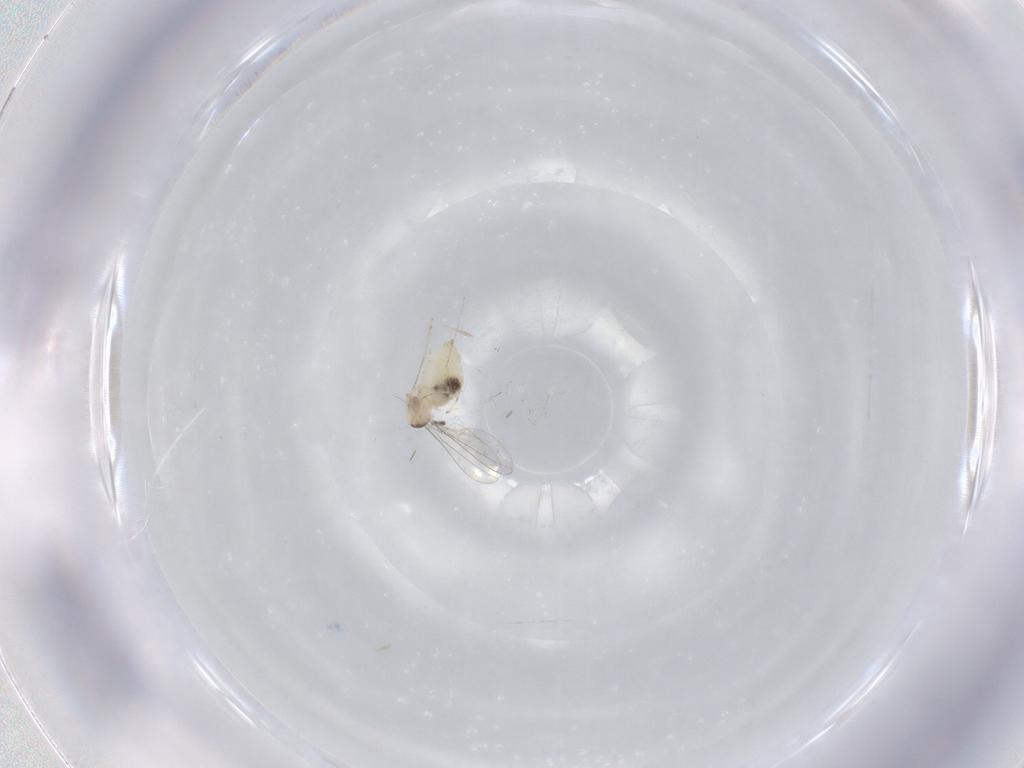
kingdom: Animalia
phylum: Arthropoda
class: Insecta
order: Diptera
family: Cecidomyiidae
